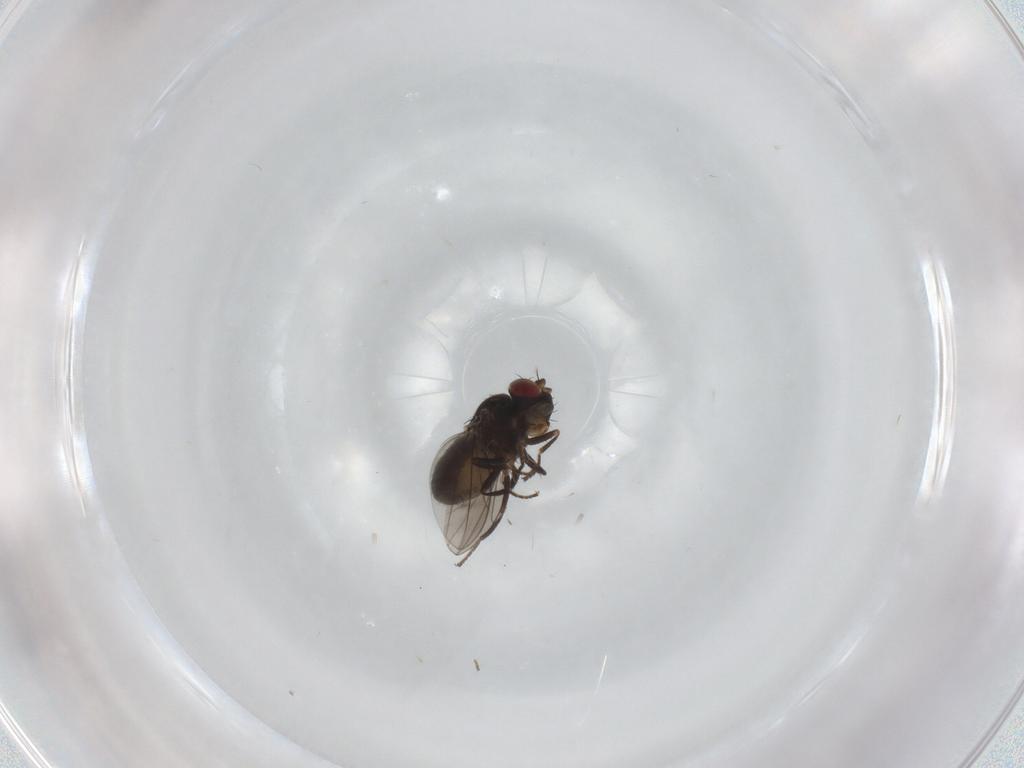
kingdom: Animalia
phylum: Arthropoda
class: Insecta
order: Diptera
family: Ephydridae
